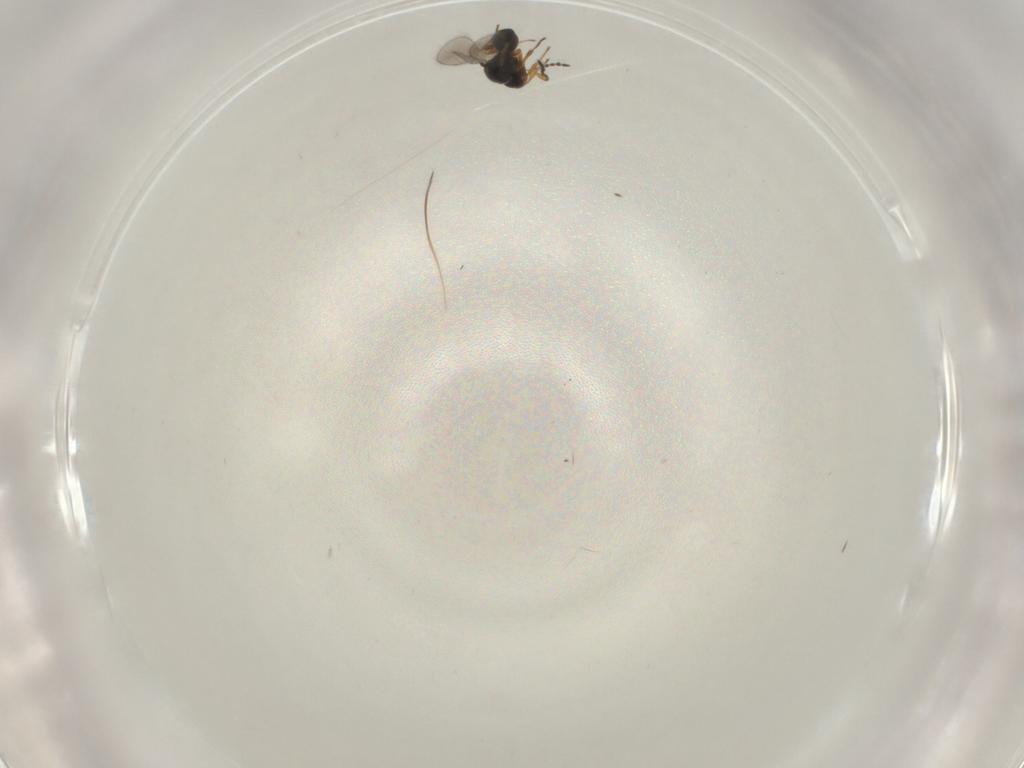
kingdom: Animalia
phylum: Arthropoda
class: Insecta
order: Hymenoptera
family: Platygastridae
